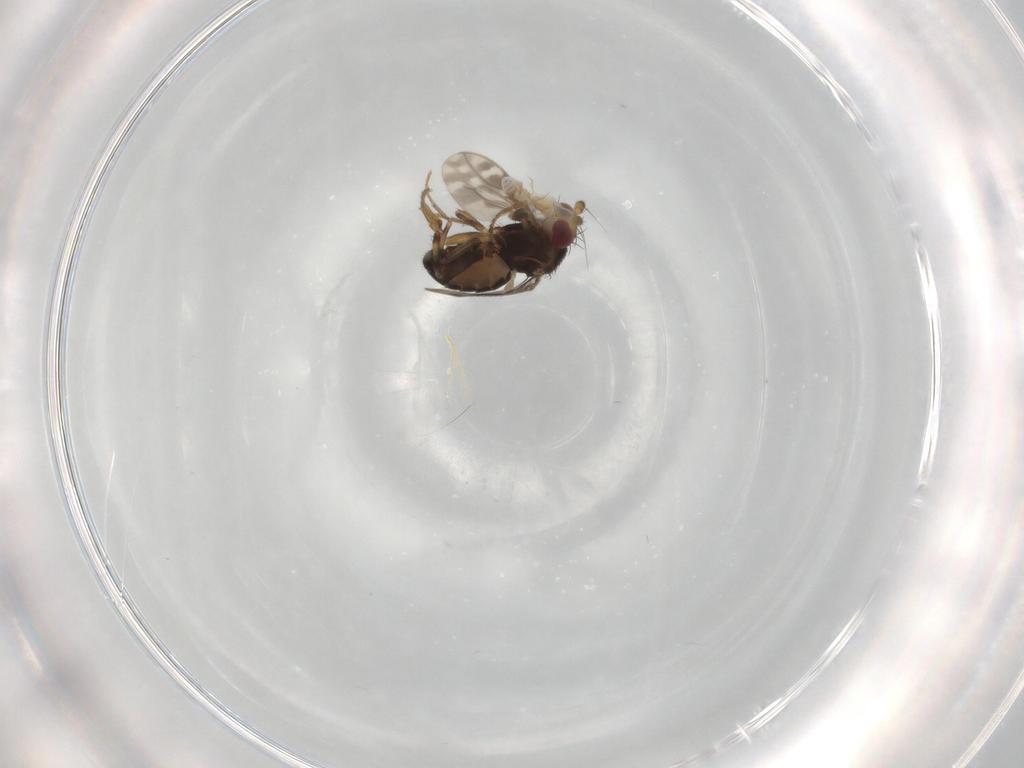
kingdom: Animalia
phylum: Arthropoda
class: Insecta
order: Diptera
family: Sphaeroceridae
